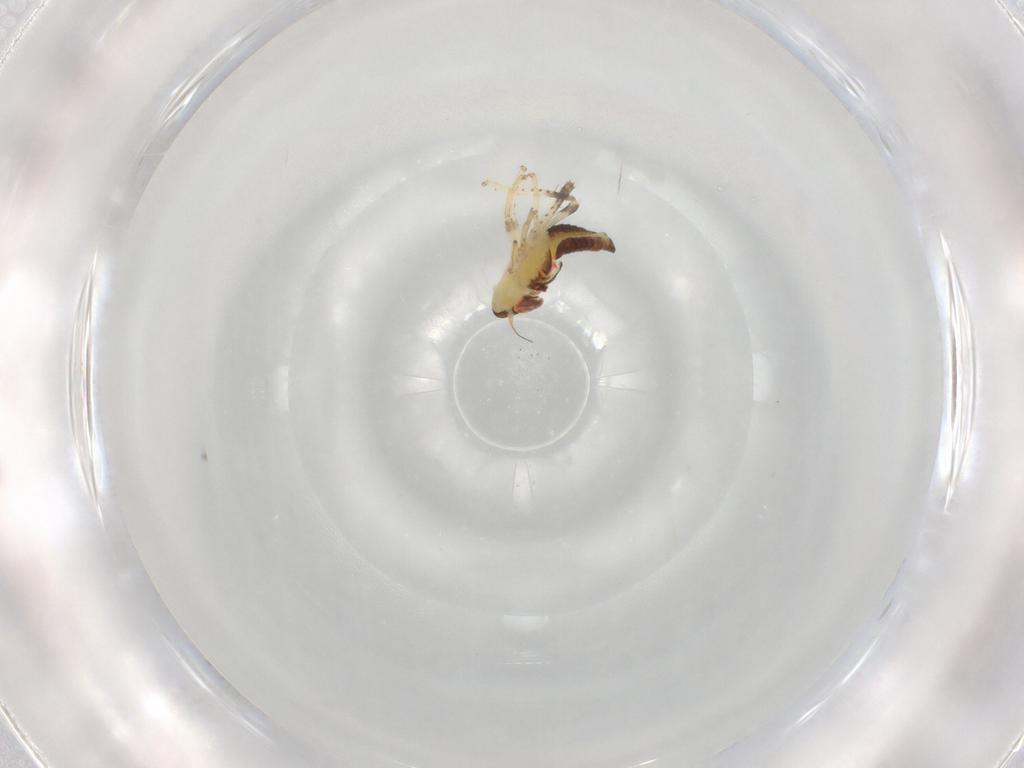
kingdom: Animalia
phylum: Arthropoda
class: Insecta
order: Hemiptera
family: Cicadellidae
